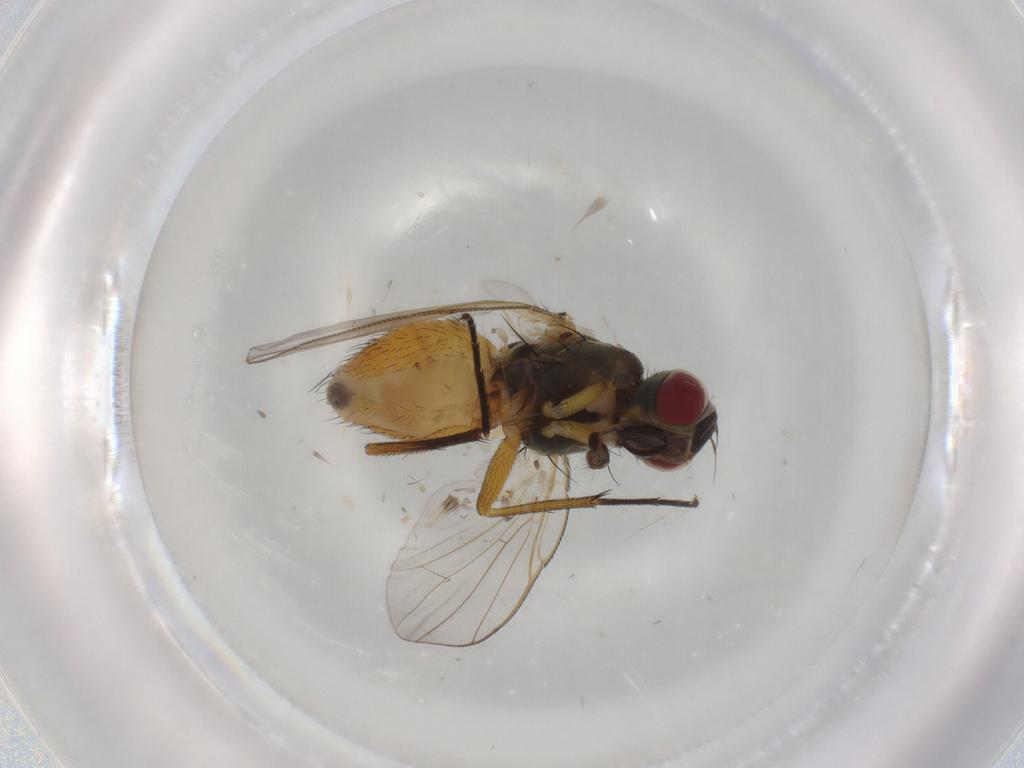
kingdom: Animalia
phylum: Arthropoda
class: Insecta
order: Diptera
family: Muscidae
